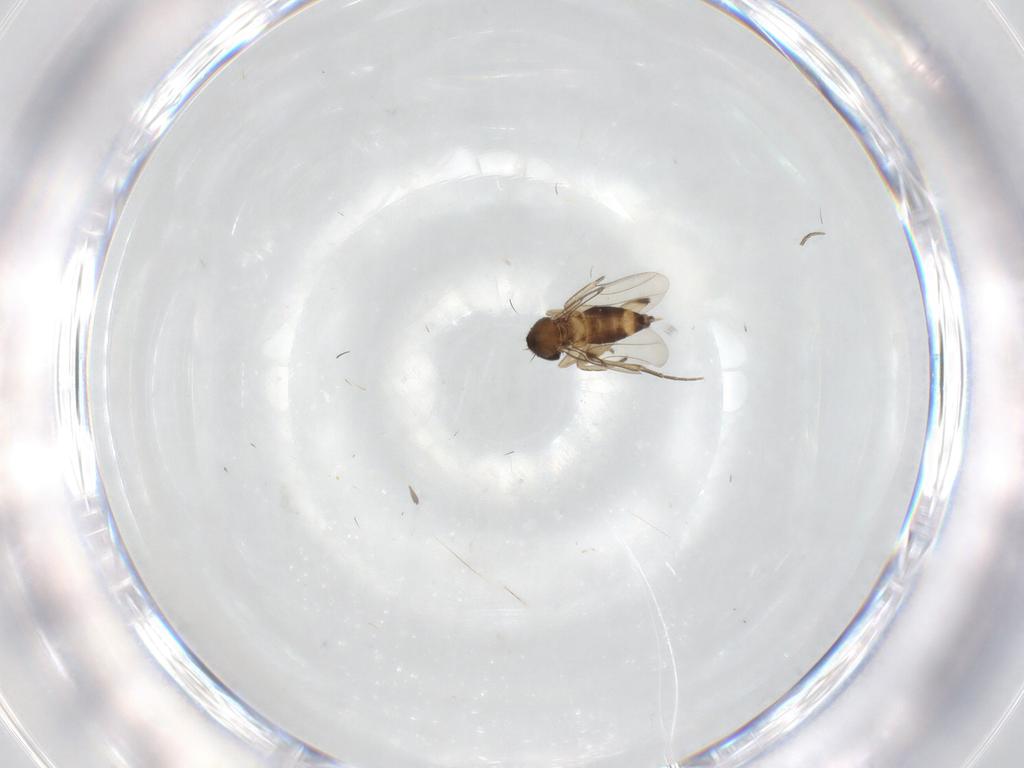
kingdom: Animalia
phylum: Arthropoda
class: Insecta
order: Diptera
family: Phoridae
